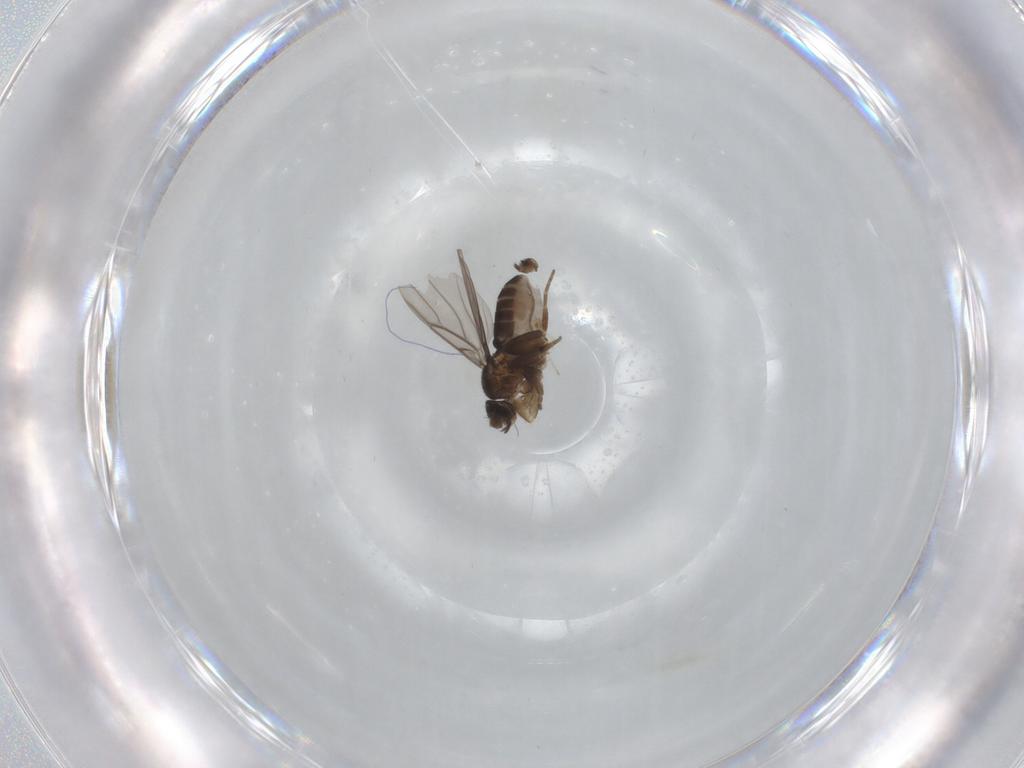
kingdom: Animalia
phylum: Arthropoda
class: Insecta
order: Diptera
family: Phoridae
